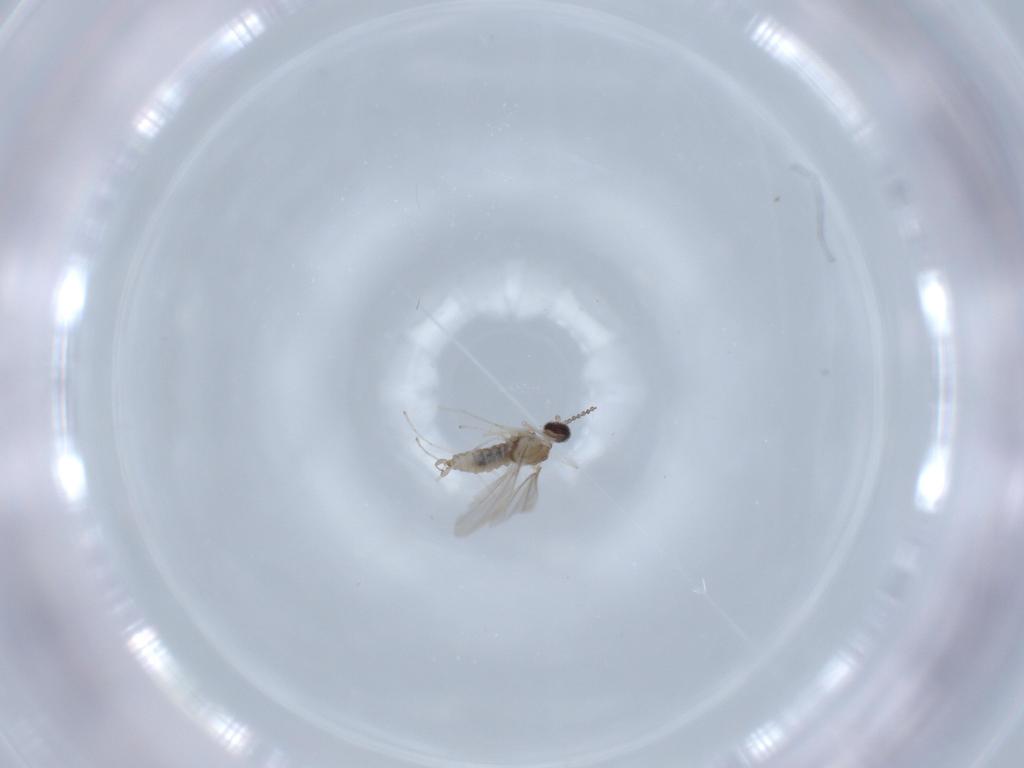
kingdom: Animalia
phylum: Arthropoda
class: Insecta
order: Diptera
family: Cecidomyiidae
